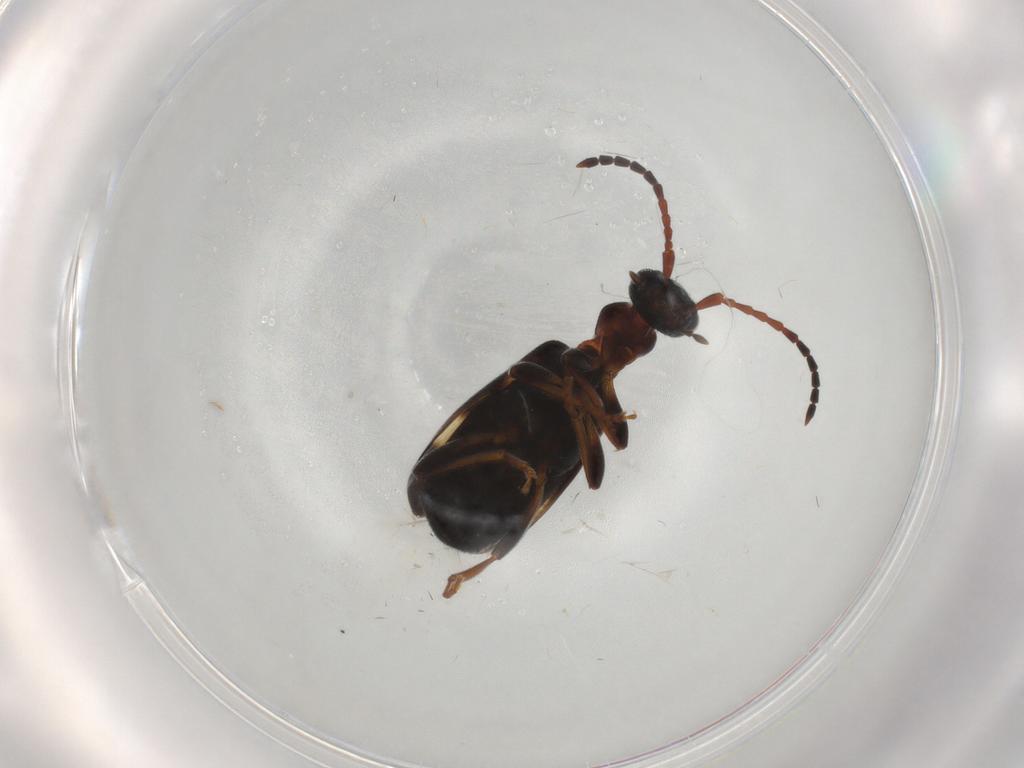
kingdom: Animalia
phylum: Arthropoda
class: Insecta
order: Coleoptera
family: Anthicidae
